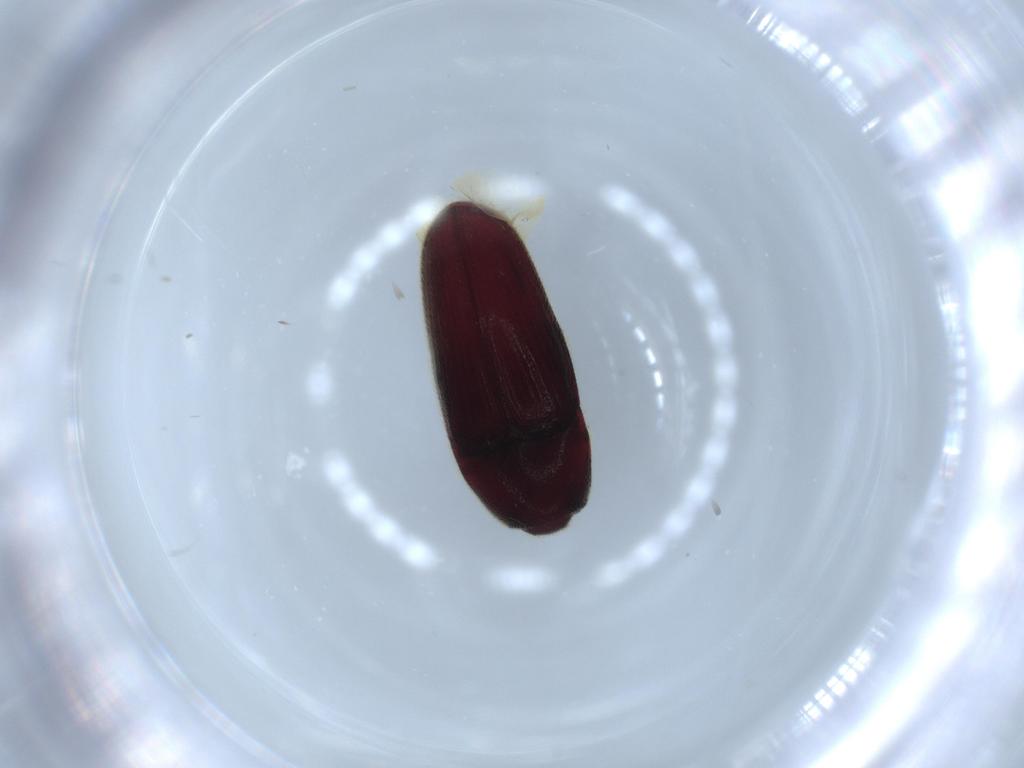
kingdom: Animalia
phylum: Arthropoda
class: Insecta
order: Coleoptera
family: Throscidae
